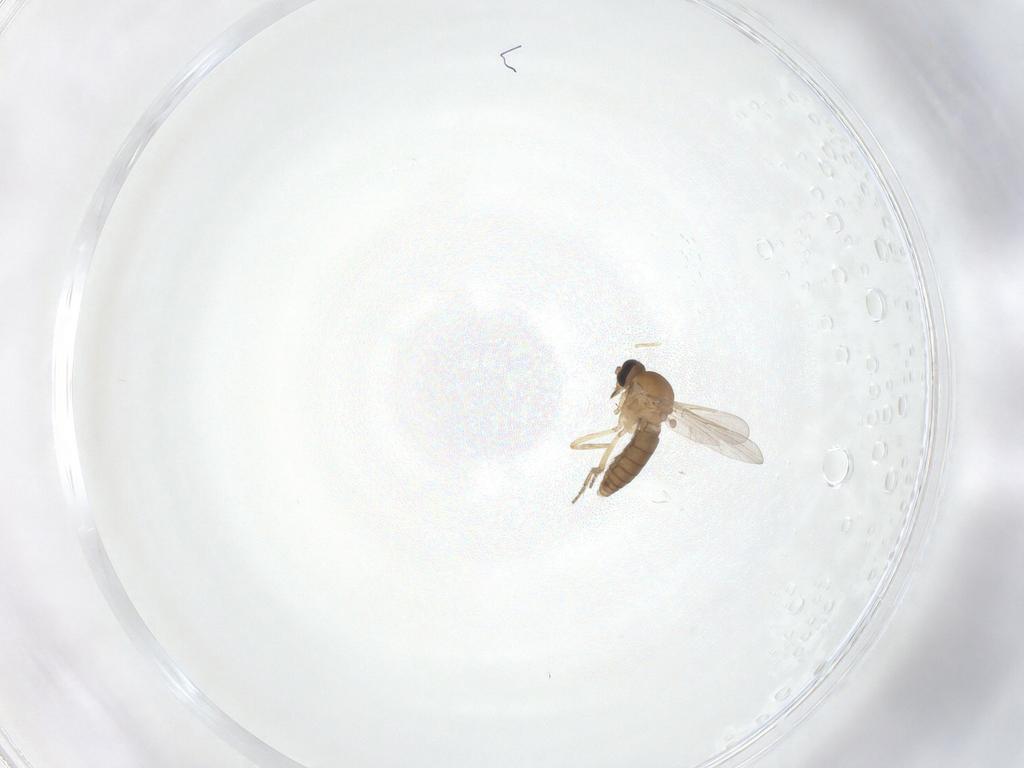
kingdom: Animalia
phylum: Arthropoda
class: Insecta
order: Diptera
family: Ceratopogonidae
